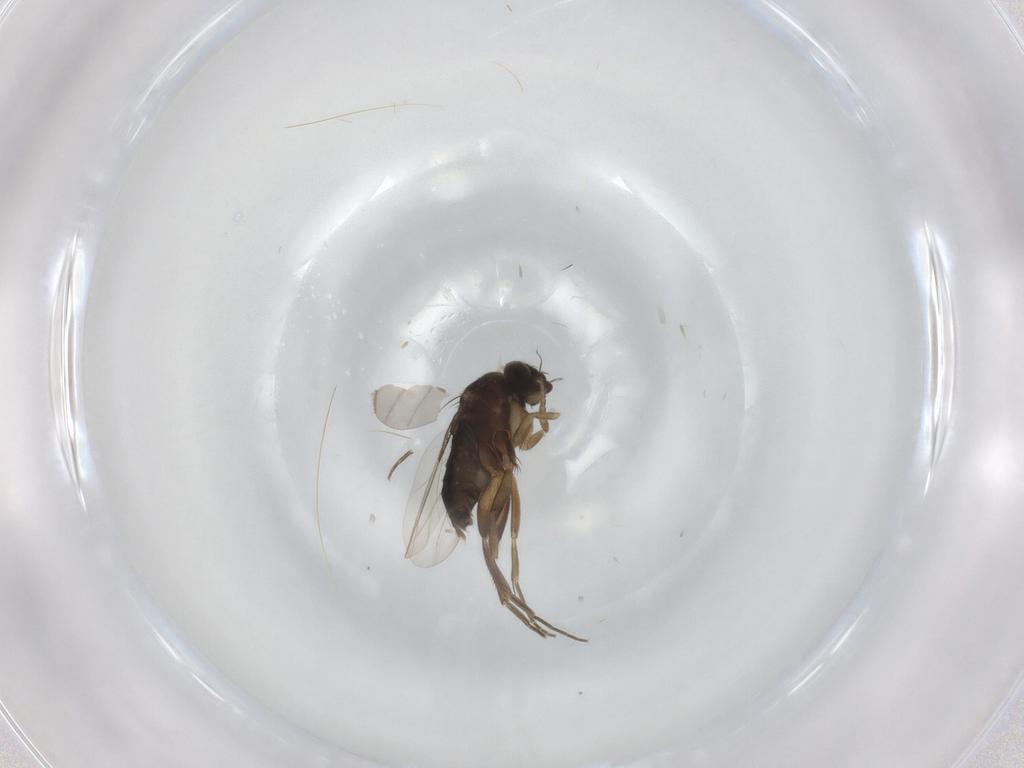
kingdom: Animalia
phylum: Arthropoda
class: Insecta
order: Diptera
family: Phoridae
